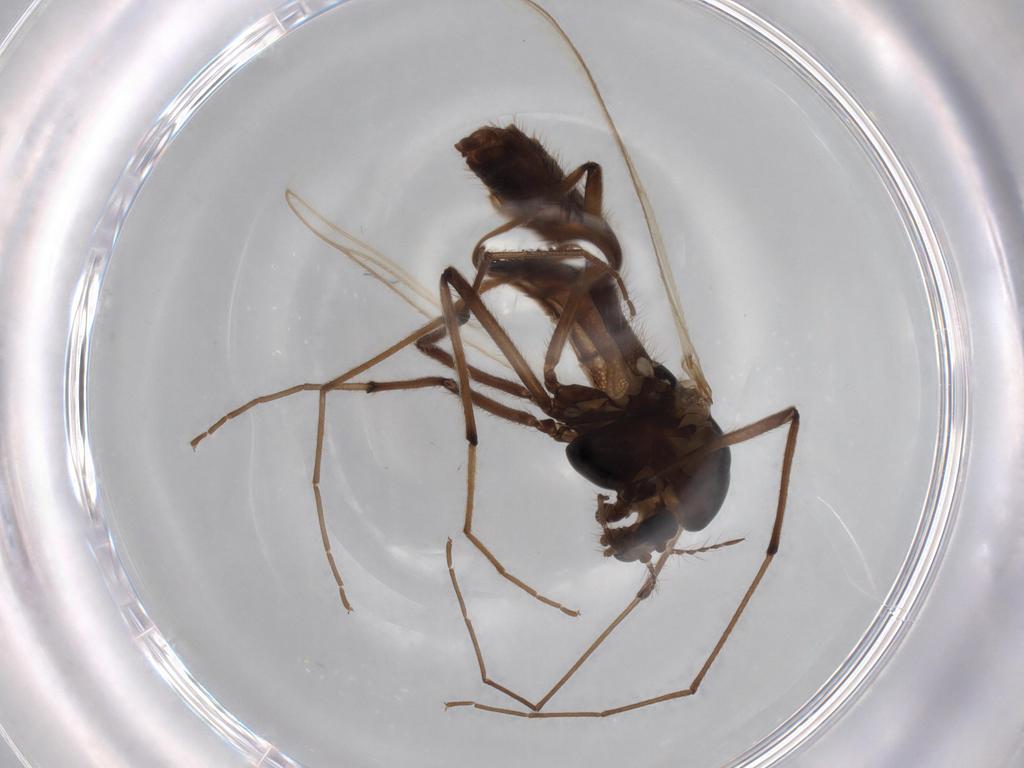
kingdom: Animalia
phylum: Arthropoda
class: Insecta
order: Diptera
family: Chironomidae
